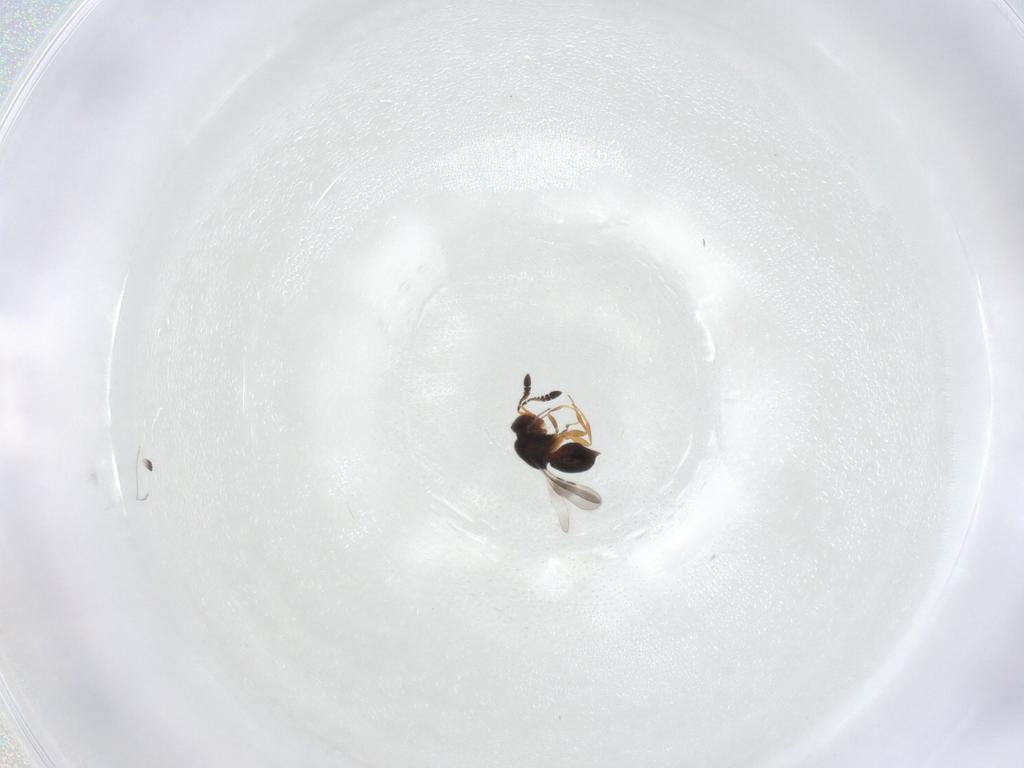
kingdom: Animalia
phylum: Arthropoda
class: Insecta
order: Hymenoptera
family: Ceraphronidae
